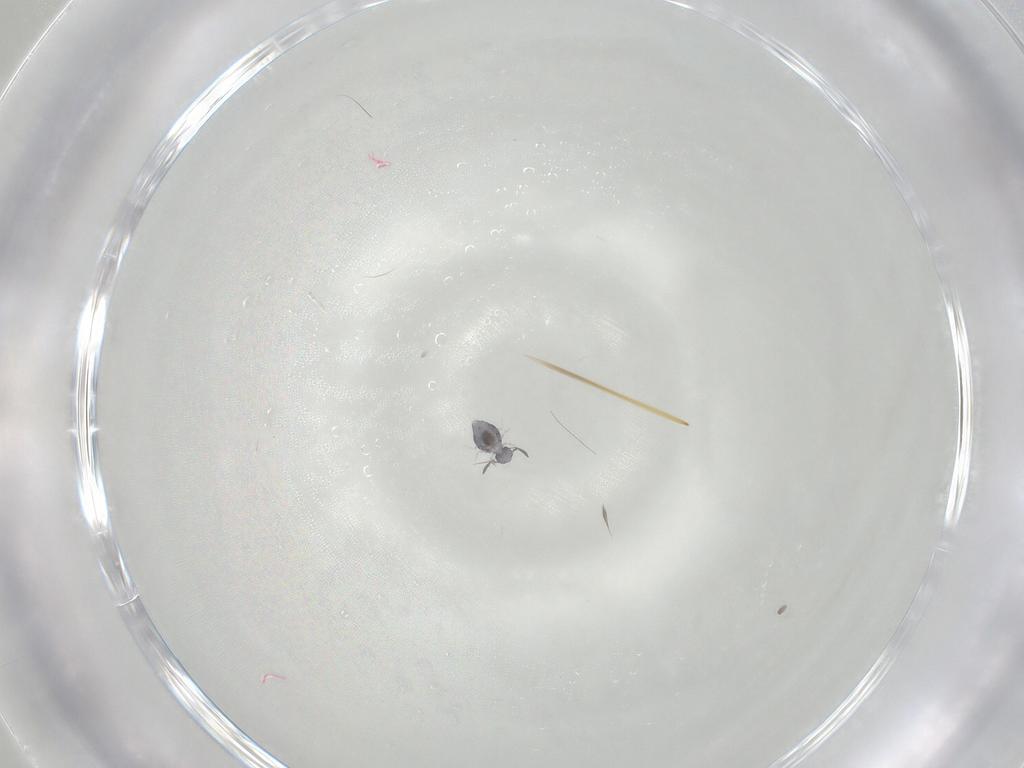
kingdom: Animalia
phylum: Arthropoda
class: Collembola
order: Symphypleona
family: Katiannidae
